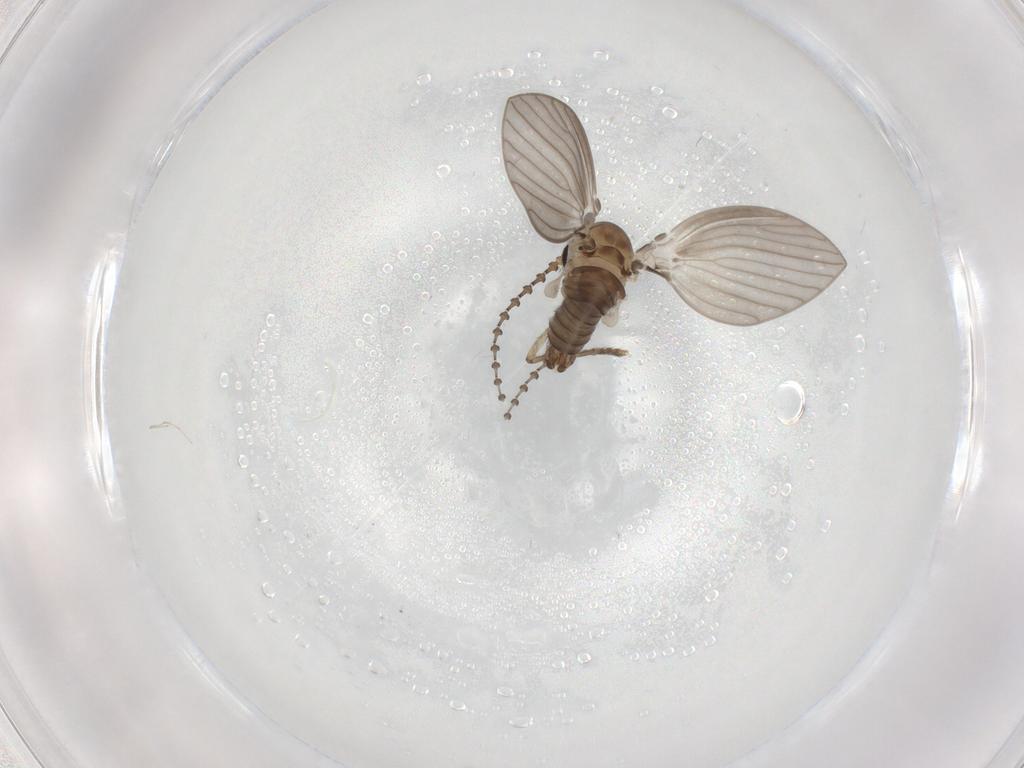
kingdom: Animalia
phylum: Arthropoda
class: Insecta
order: Diptera
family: Psychodidae
